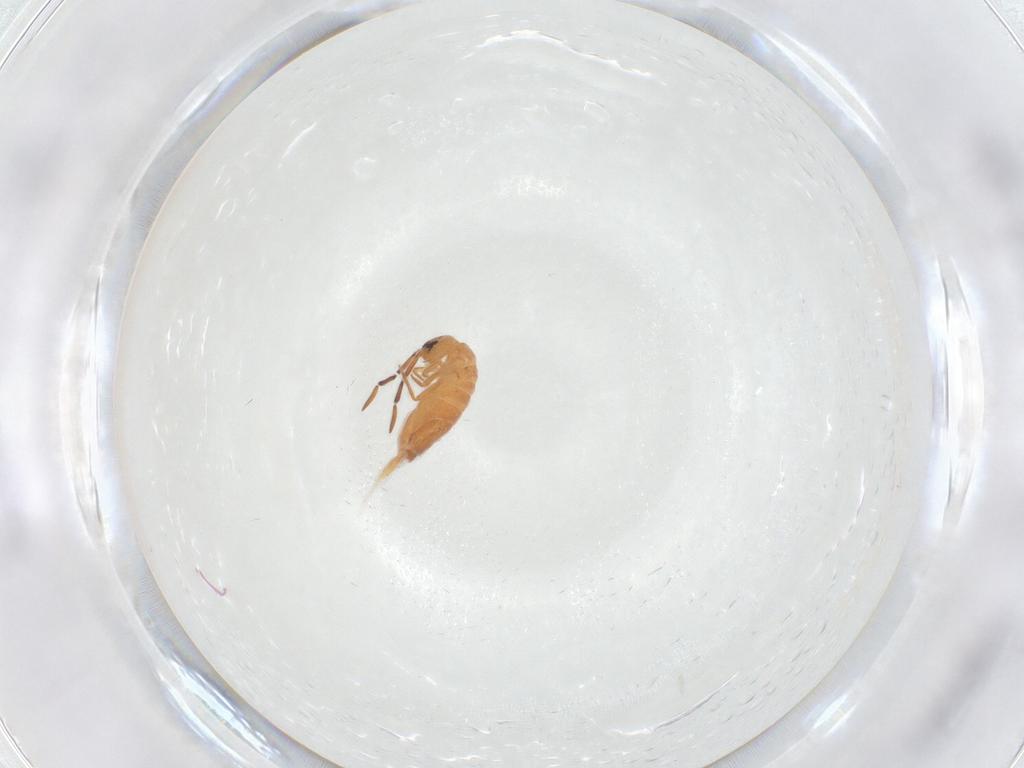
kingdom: Animalia
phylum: Arthropoda
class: Collembola
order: Entomobryomorpha
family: Entomobryidae
